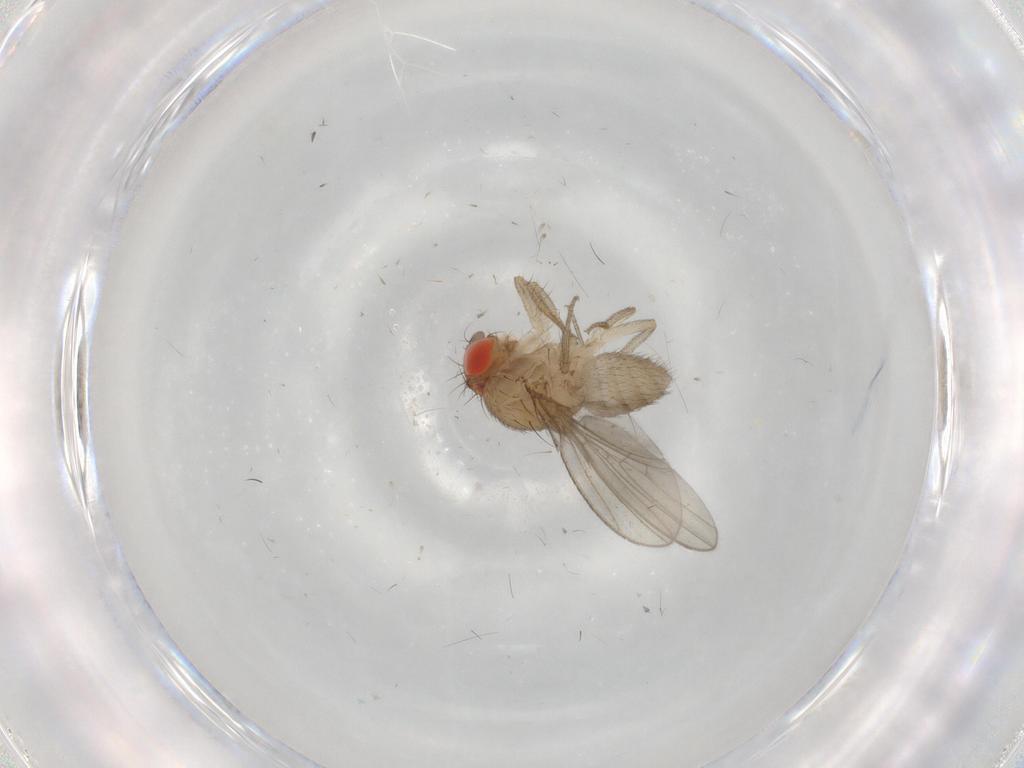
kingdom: Animalia
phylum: Arthropoda
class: Insecta
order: Diptera
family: Drosophilidae
